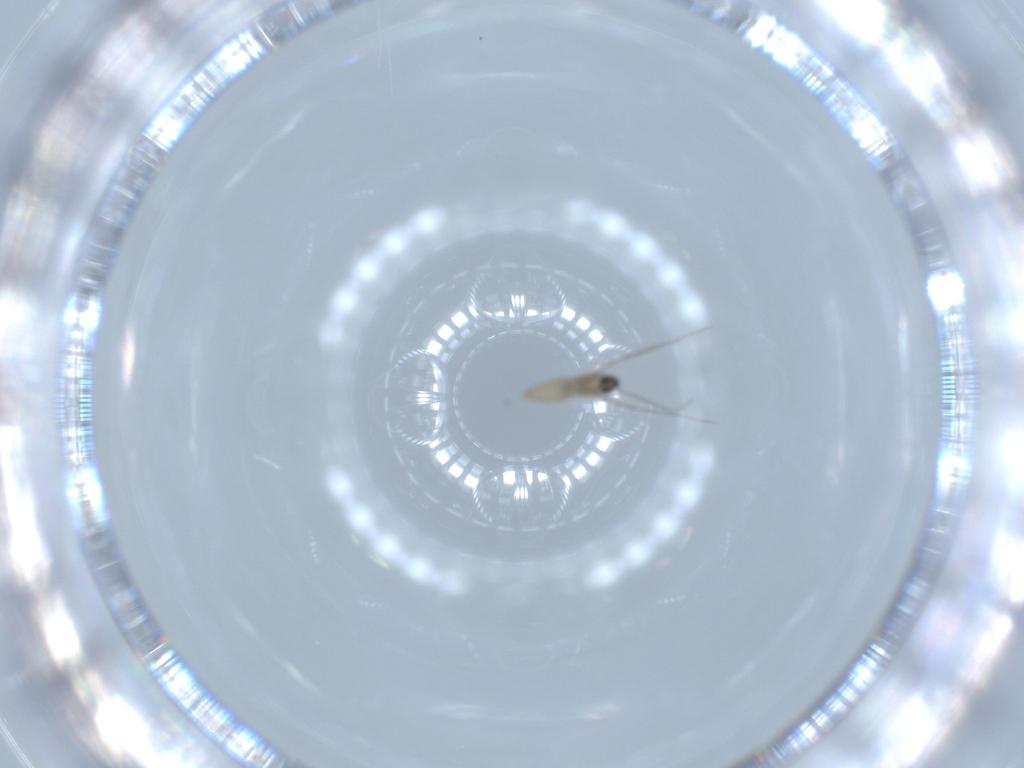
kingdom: Animalia
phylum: Arthropoda
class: Insecta
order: Diptera
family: Cecidomyiidae
